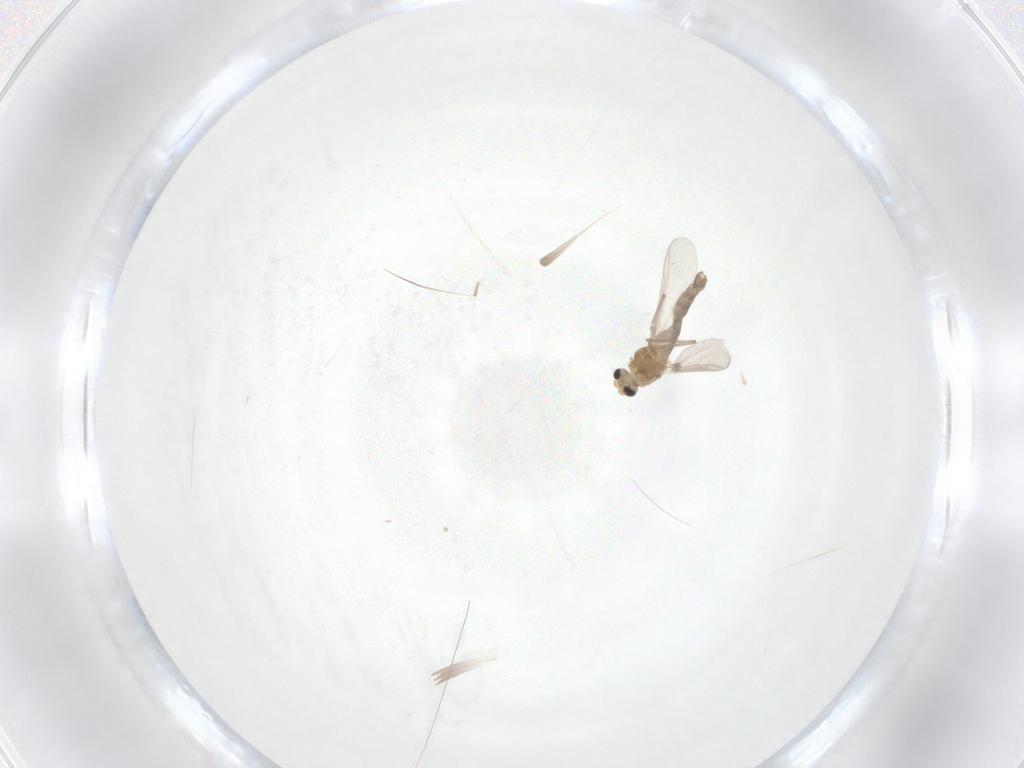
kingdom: Animalia
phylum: Arthropoda
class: Insecta
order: Diptera
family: Chironomidae
